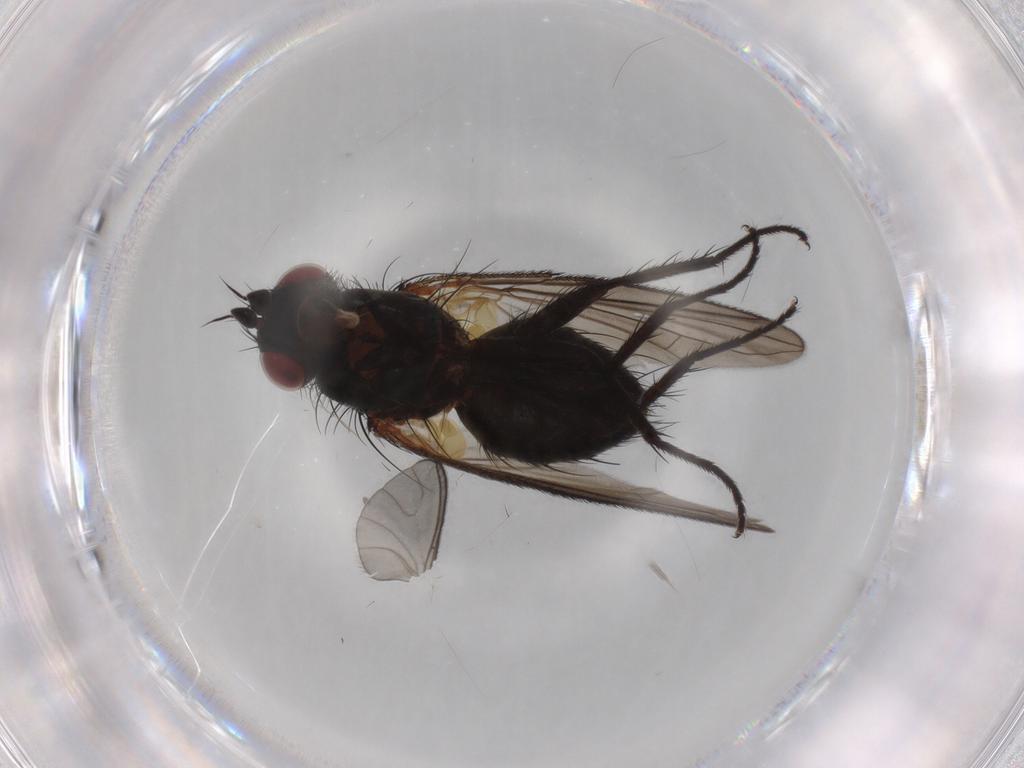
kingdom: Animalia
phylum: Arthropoda
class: Insecta
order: Diptera
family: Tachinidae
